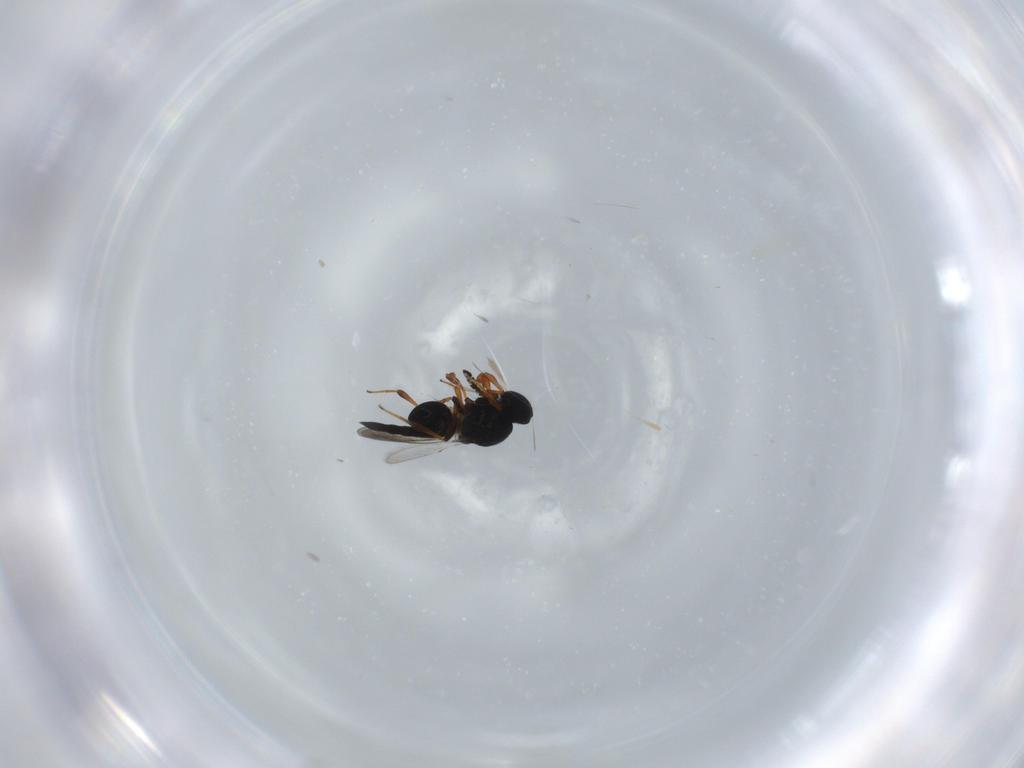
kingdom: Animalia
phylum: Arthropoda
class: Insecta
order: Hymenoptera
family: Platygastridae
